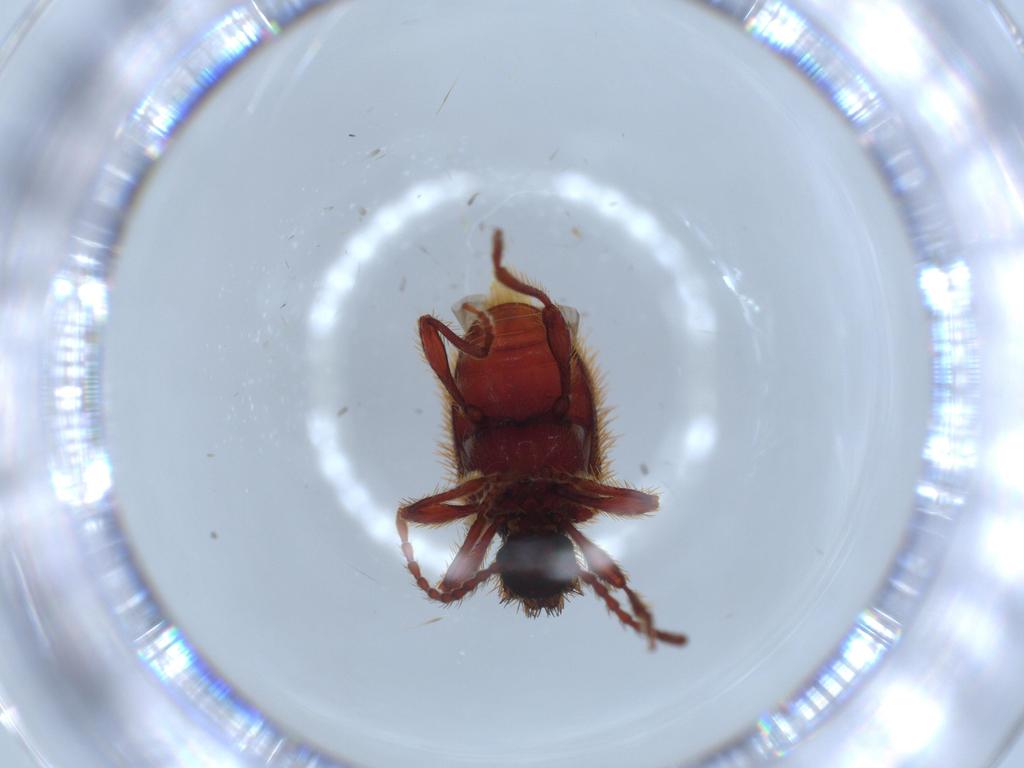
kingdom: Animalia
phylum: Arthropoda
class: Insecta
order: Coleoptera
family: Ptinidae
